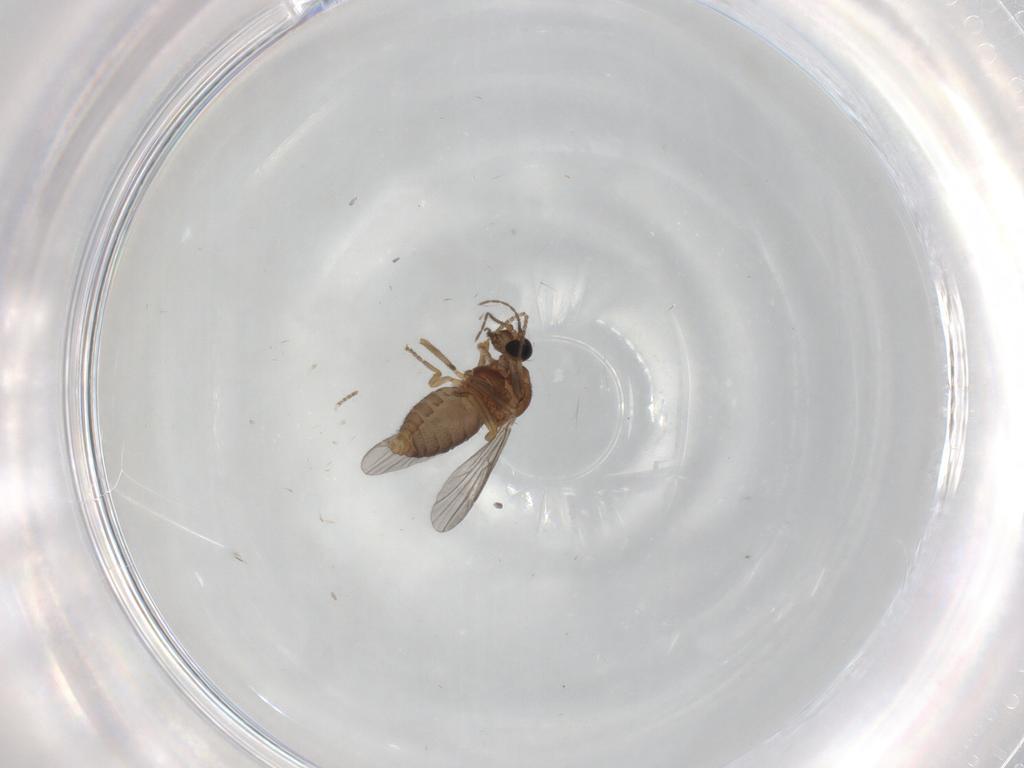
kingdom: Animalia
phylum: Arthropoda
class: Insecta
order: Diptera
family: Ceratopogonidae
